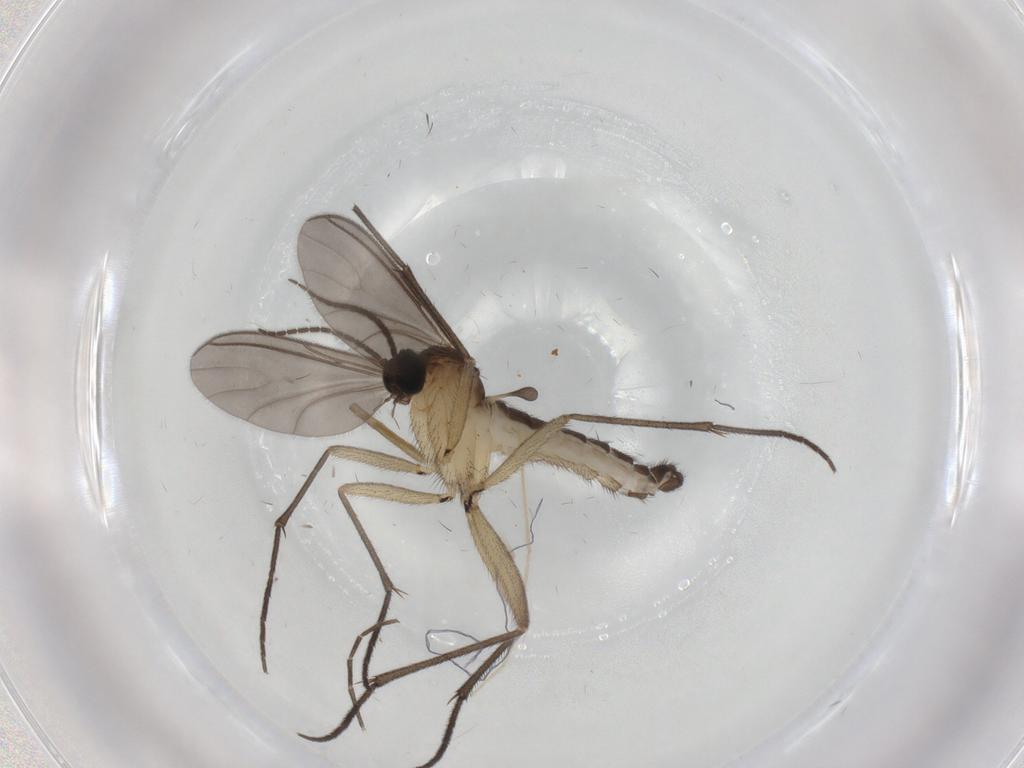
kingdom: Animalia
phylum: Arthropoda
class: Insecta
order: Diptera
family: Sciaridae
